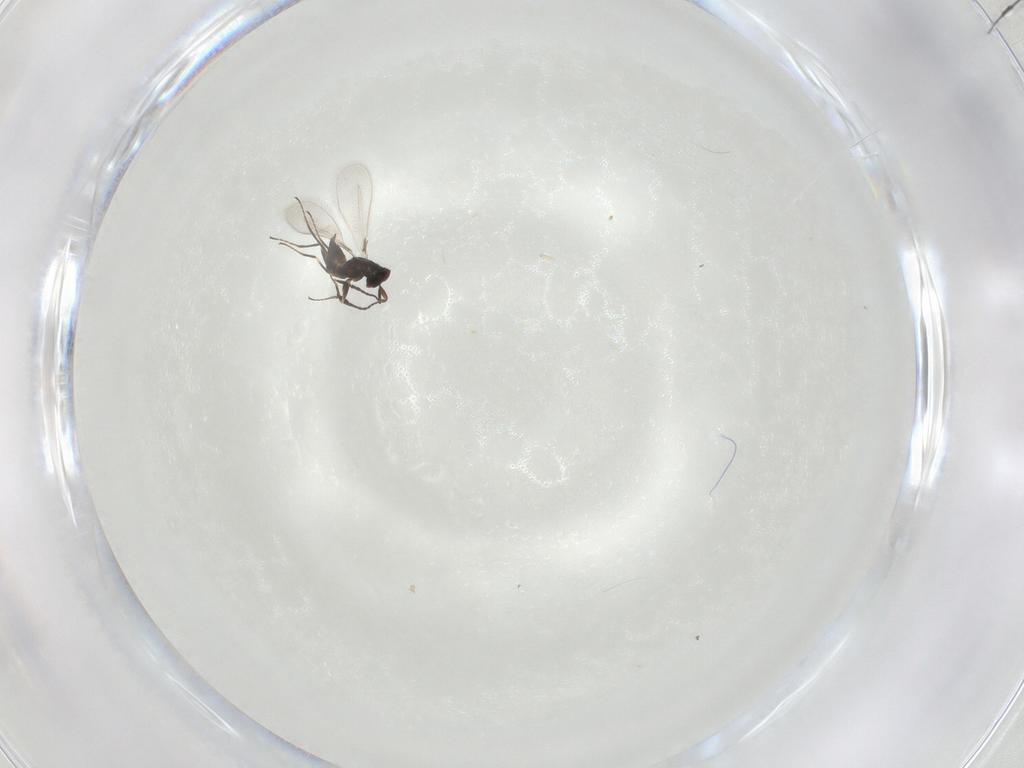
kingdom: Animalia
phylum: Arthropoda
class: Insecta
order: Hymenoptera
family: Mymaridae
